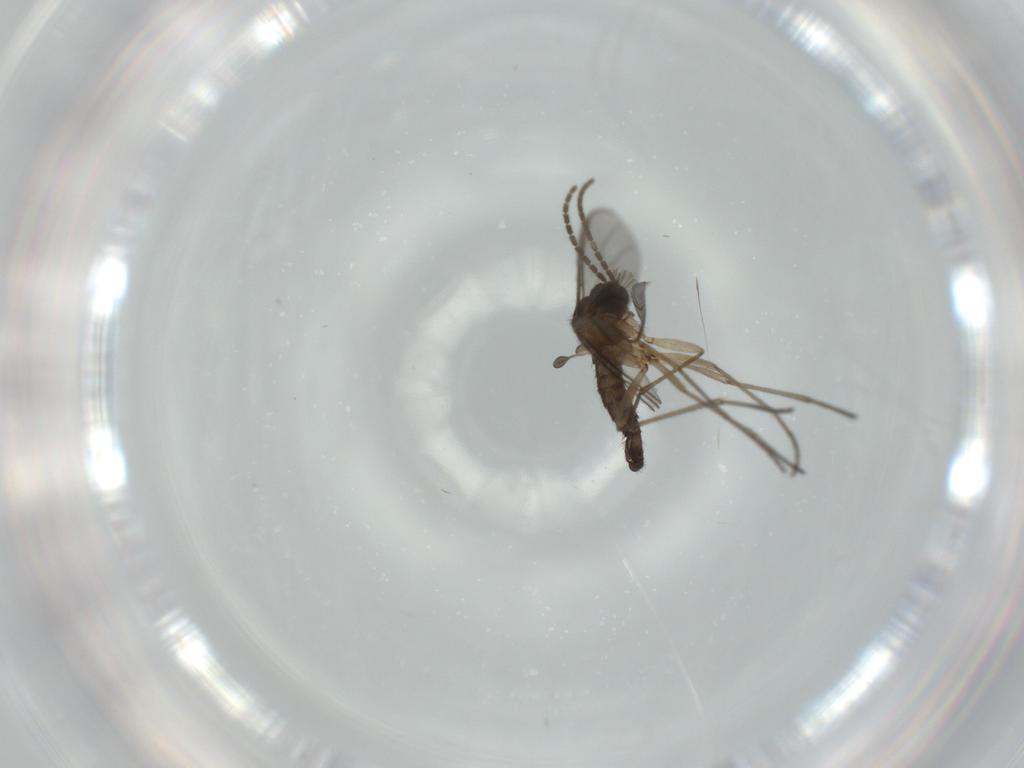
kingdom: Animalia
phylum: Arthropoda
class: Insecta
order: Diptera
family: Sciaridae
